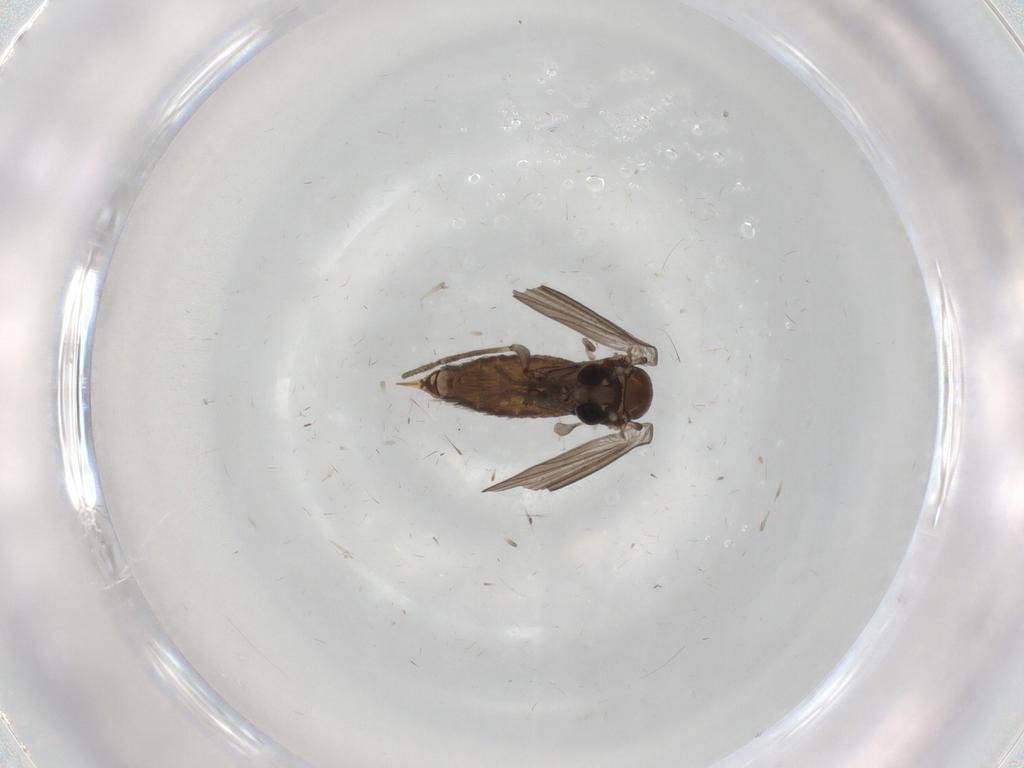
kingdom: Animalia
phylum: Arthropoda
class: Insecta
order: Diptera
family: Psychodidae
